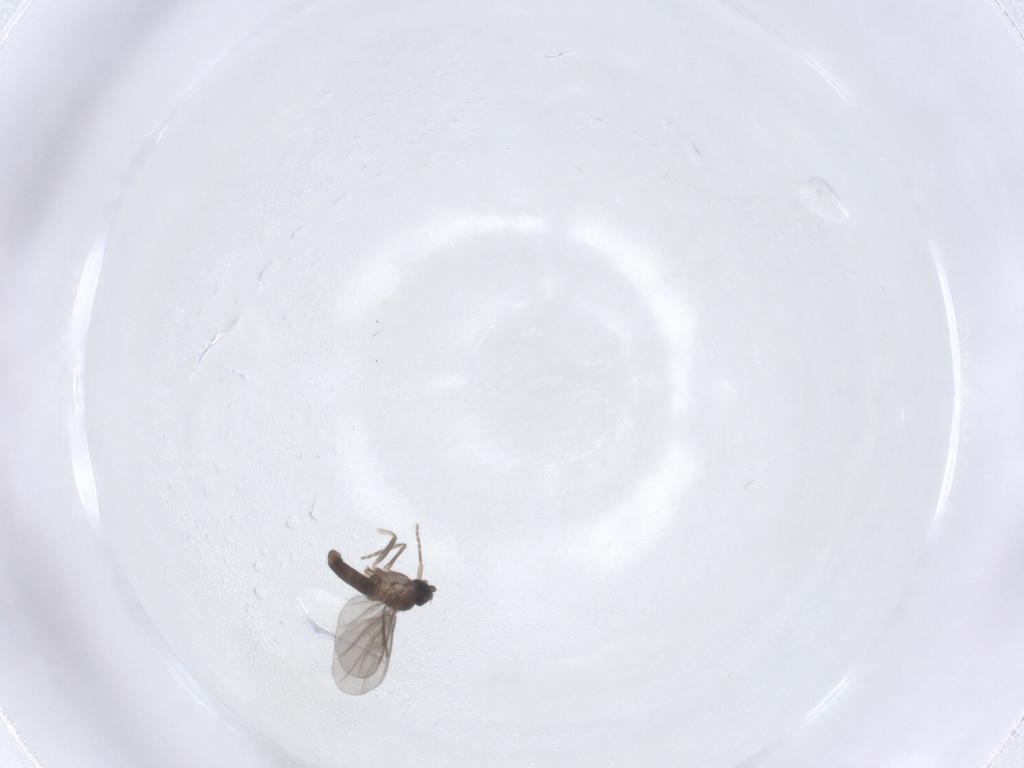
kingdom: Animalia
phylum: Arthropoda
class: Insecta
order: Diptera
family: Phoridae
